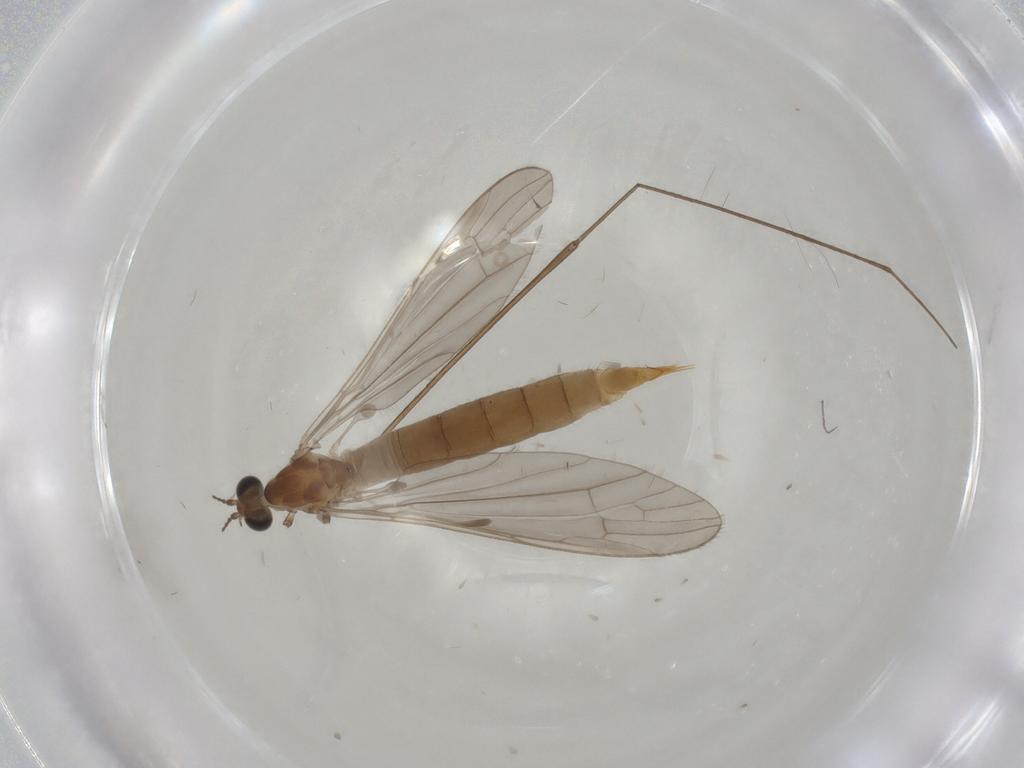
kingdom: Animalia
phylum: Arthropoda
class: Insecta
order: Diptera
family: Limoniidae
